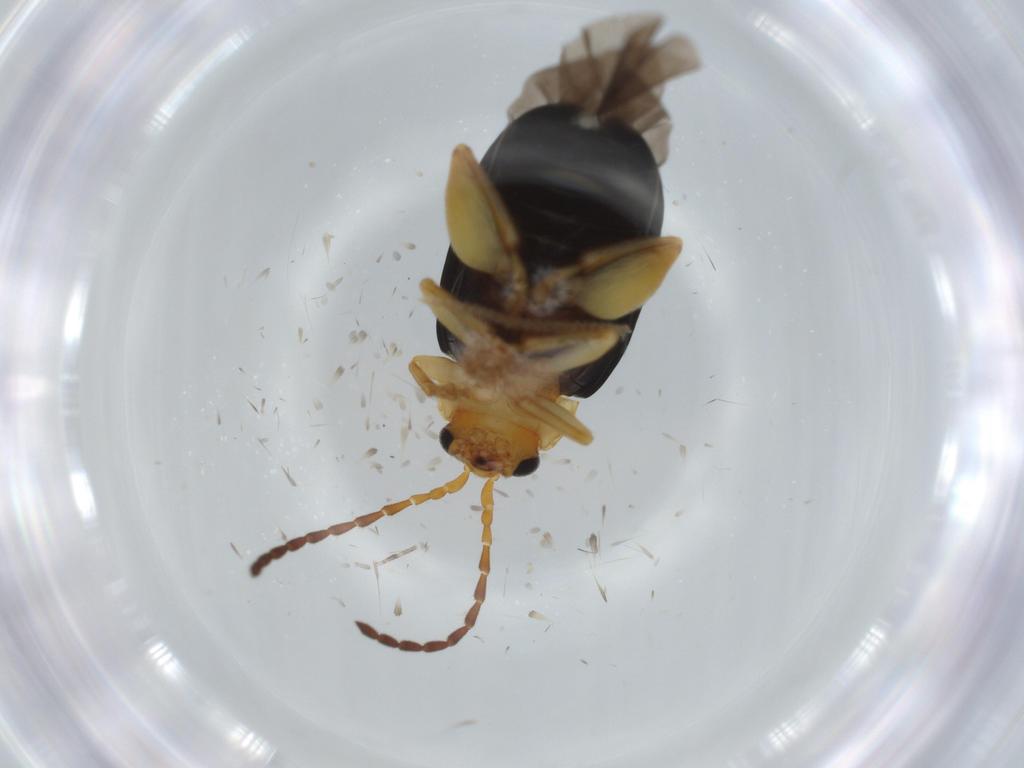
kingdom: Animalia
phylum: Arthropoda
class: Insecta
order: Coleoptera
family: Chrysomelidae
